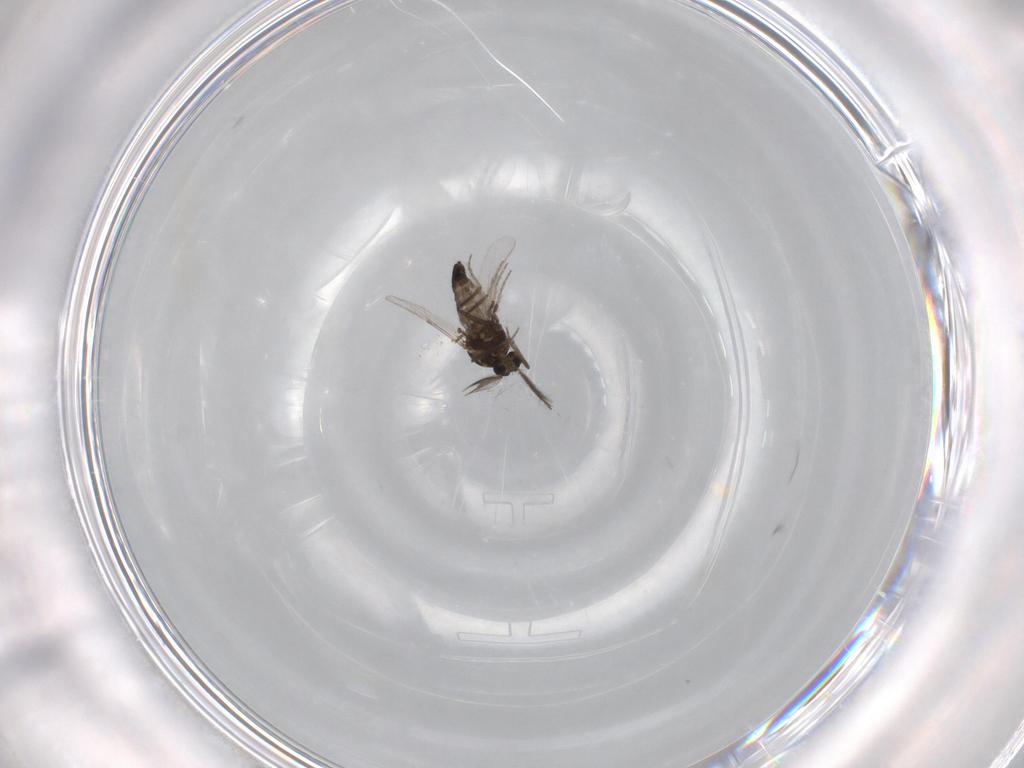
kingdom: Animalia
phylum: Arthropoda
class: Insecta
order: Diptera
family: Ceratopogonidae
